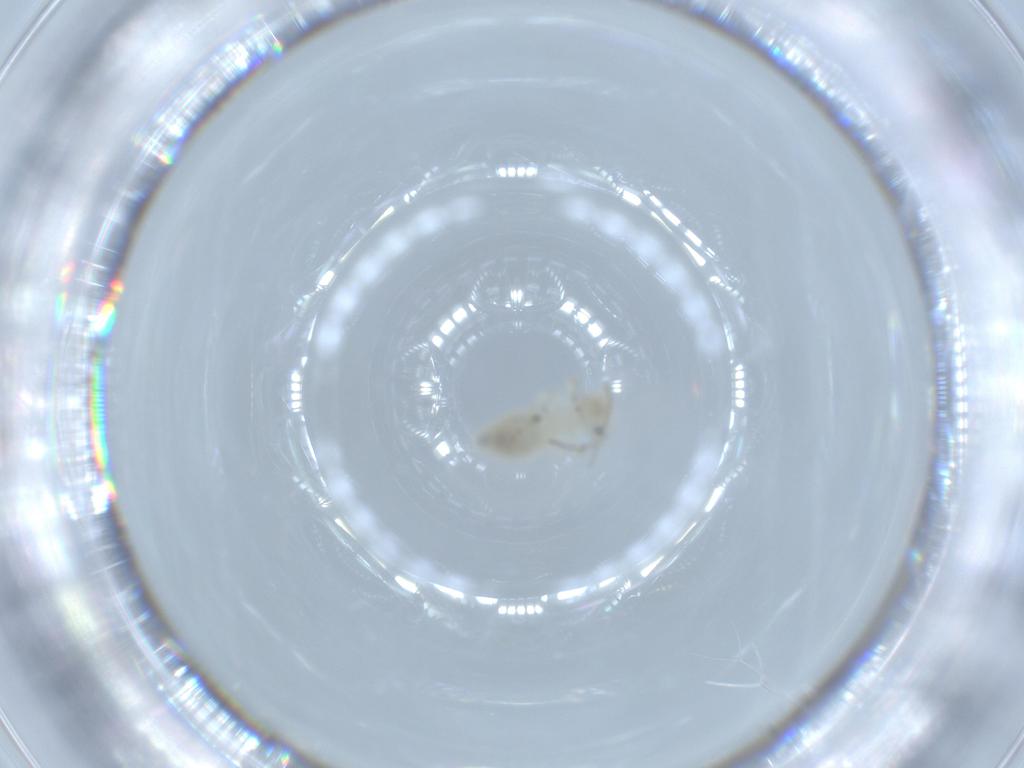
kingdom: Animalia
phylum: Arthropoda
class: Insecta
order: Psocodea
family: Caeciliusidae
